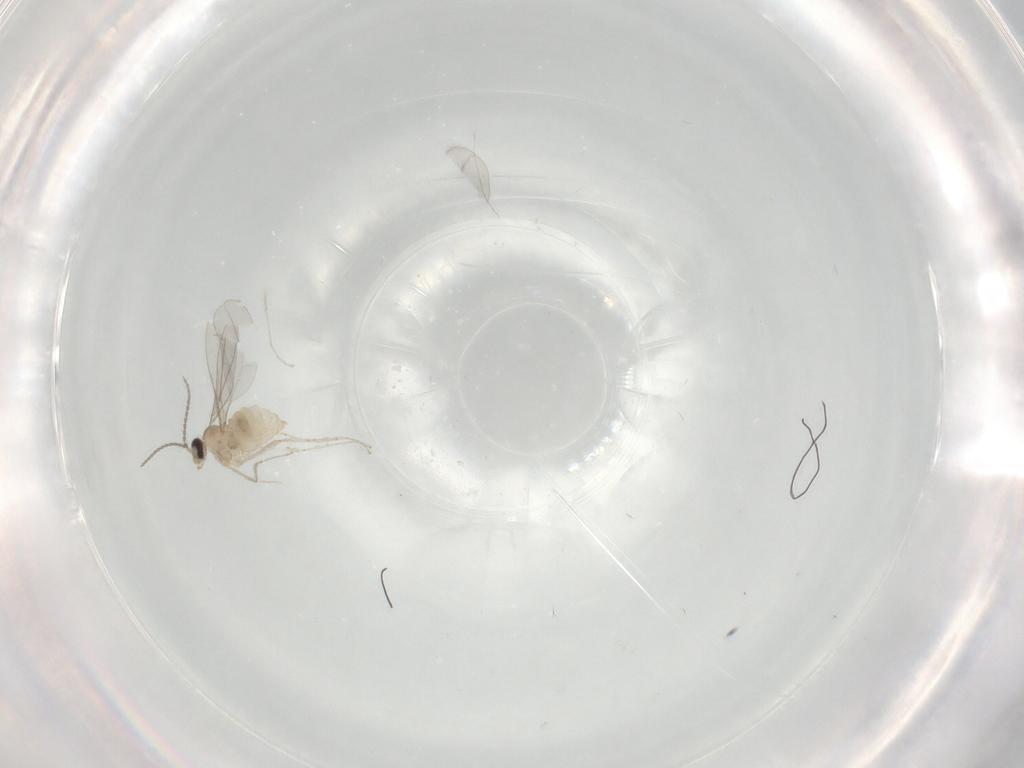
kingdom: Animalia
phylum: Arthropoda
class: Insecta
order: Diptera
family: Cecidomyiidae
